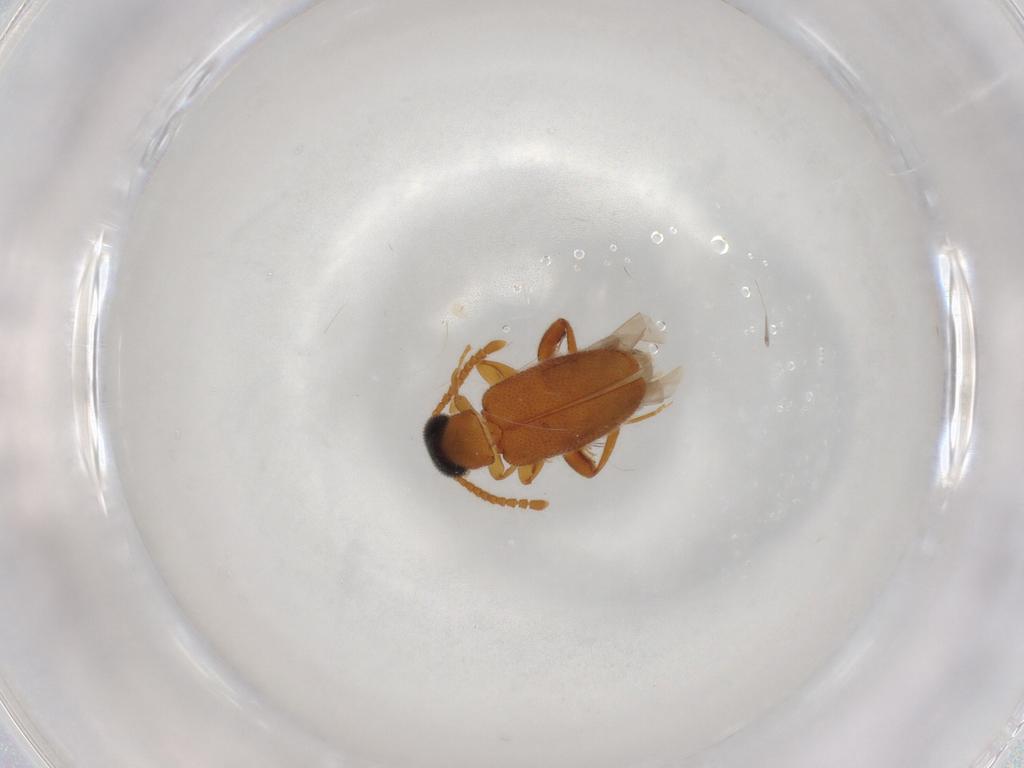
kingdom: Animalia
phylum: Arthropoda
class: Insecta
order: Coleoptera
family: Aderidae
